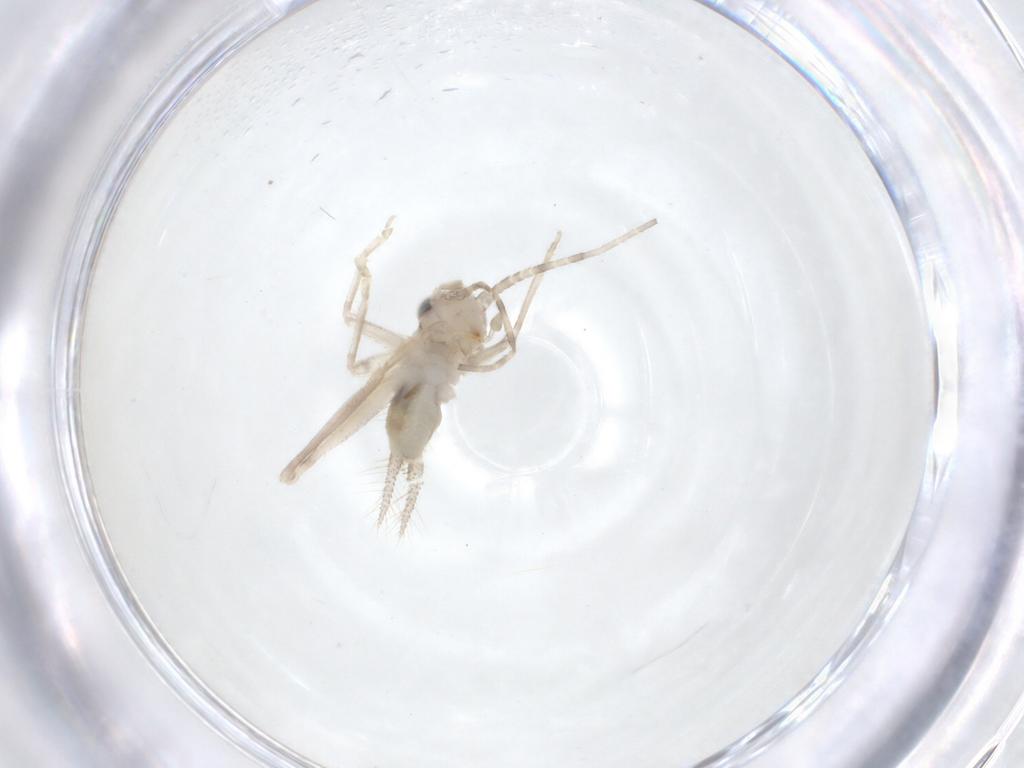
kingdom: Animalia
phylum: Arthropoda
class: Insecta
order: Orthoptera
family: Trigonidiidae
